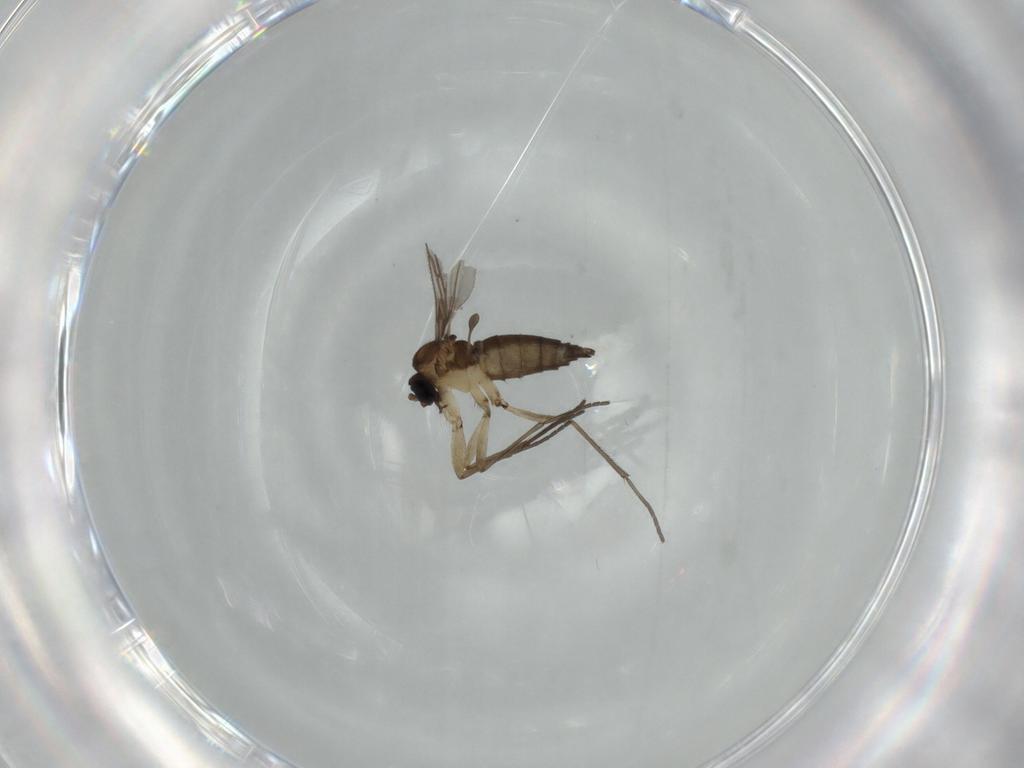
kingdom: Animalia
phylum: Arthropoda
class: Insecta
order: Diptera
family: Sciaridae
